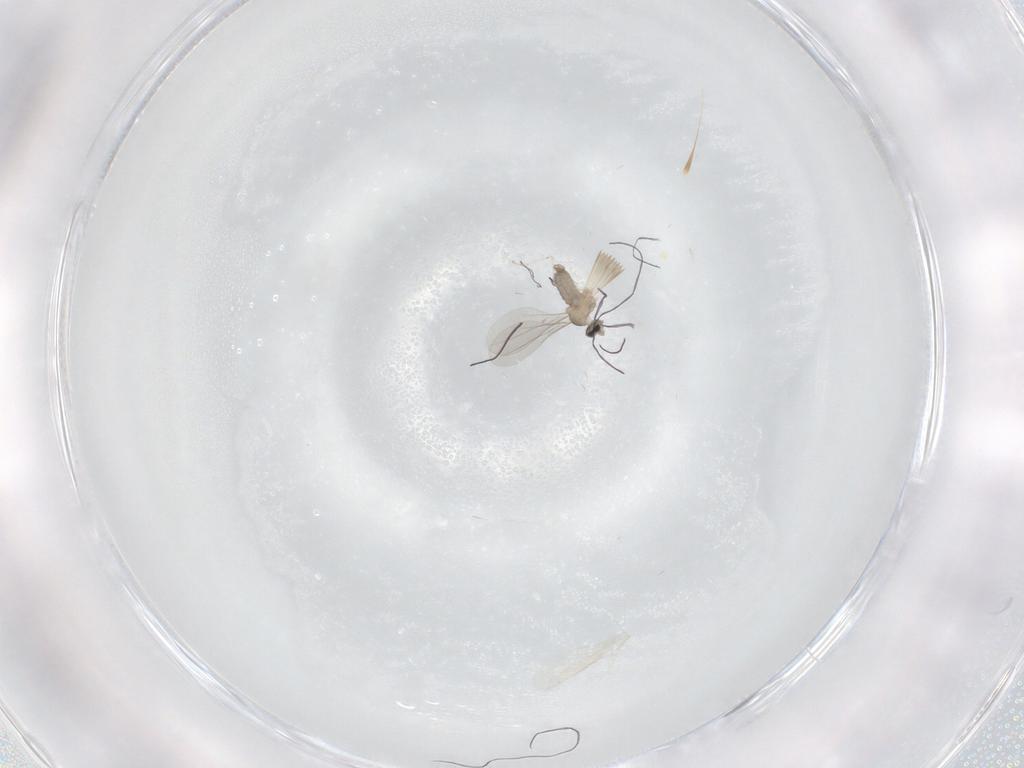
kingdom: Animalia
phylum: Arthropoda
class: Insecta
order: Diptera
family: Cecidomyiidae
